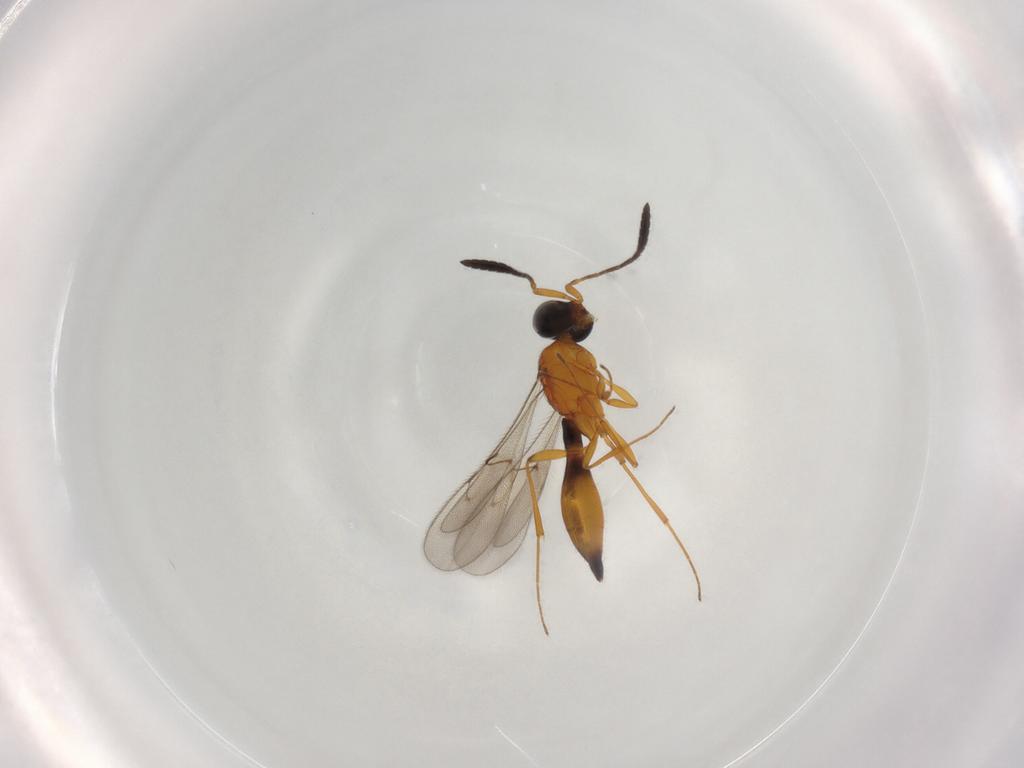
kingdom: Animalia
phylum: Arthropoda
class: Insecta
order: Hymenoptera
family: Scelionidae
